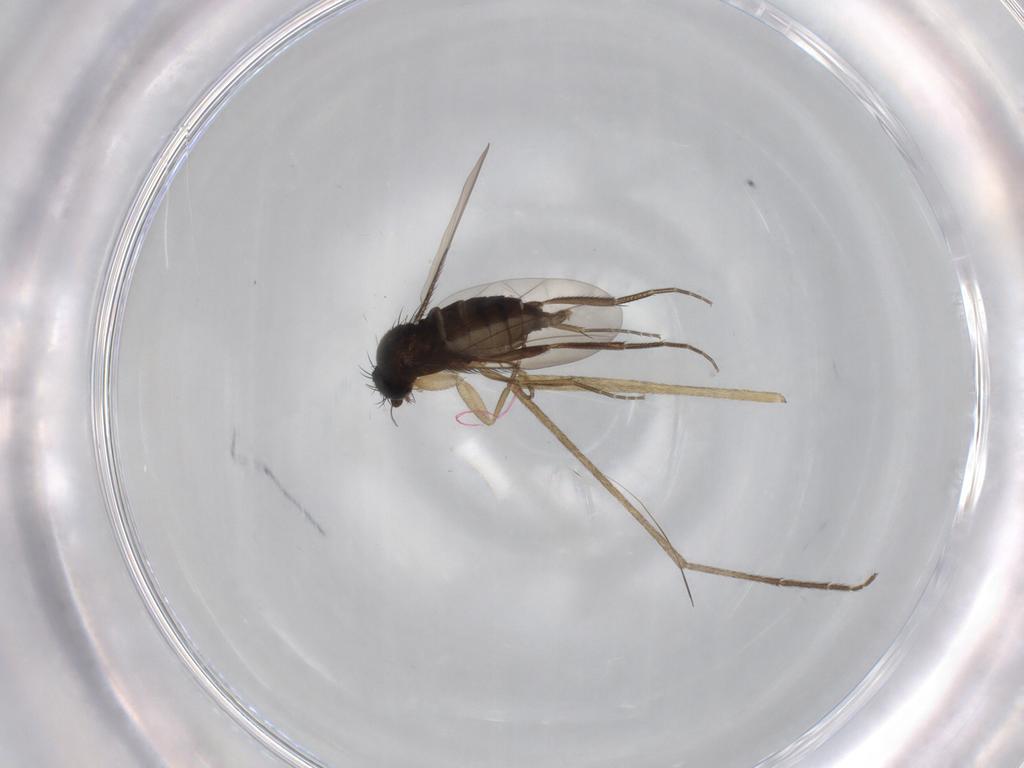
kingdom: Animalia
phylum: Arthropoda
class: Insecta
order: Diptera
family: Phoridae
